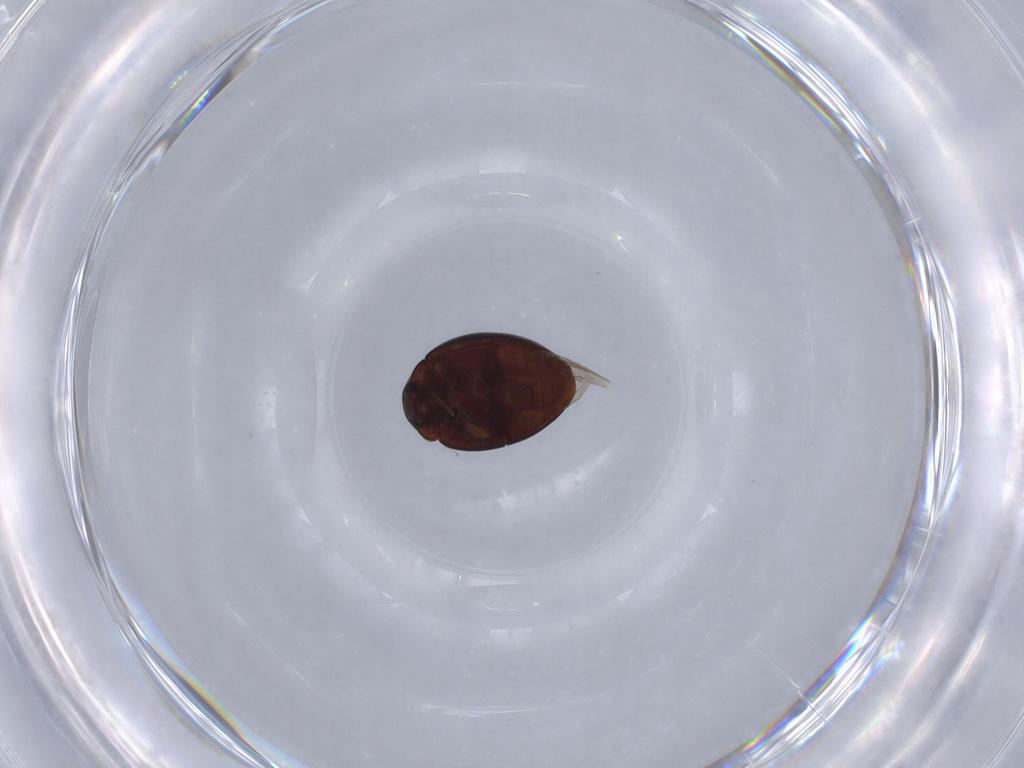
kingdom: Animalia
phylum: Arthropoda
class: Insecta
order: Coleoptera
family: Coccinellidae
